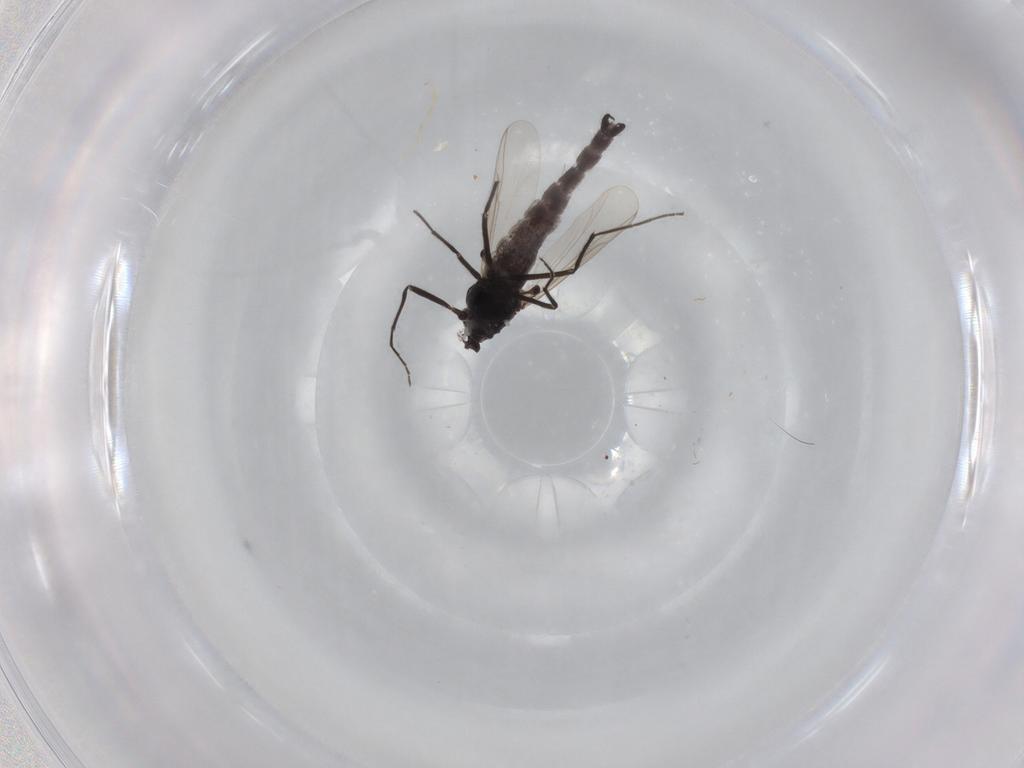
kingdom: Animalia
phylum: Arthropoda
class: Insecta
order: Diptera
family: Chironomidae
